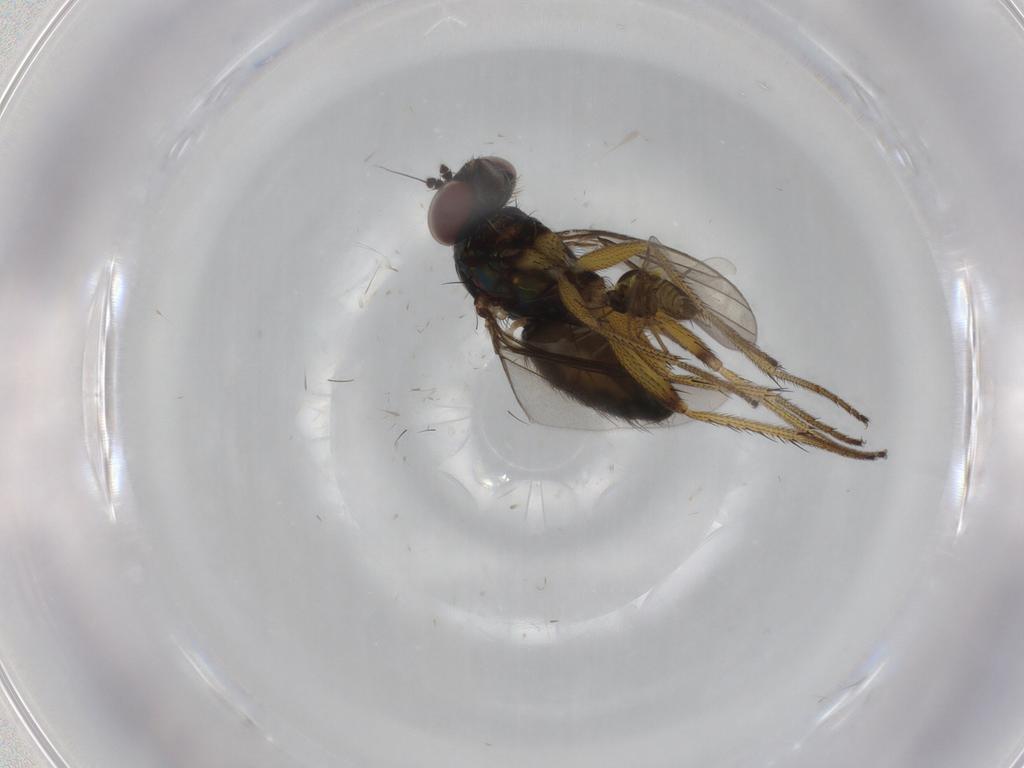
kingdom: Animalia
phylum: Arthropoda
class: Insecta
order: Diptera
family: Dolichopodidae
